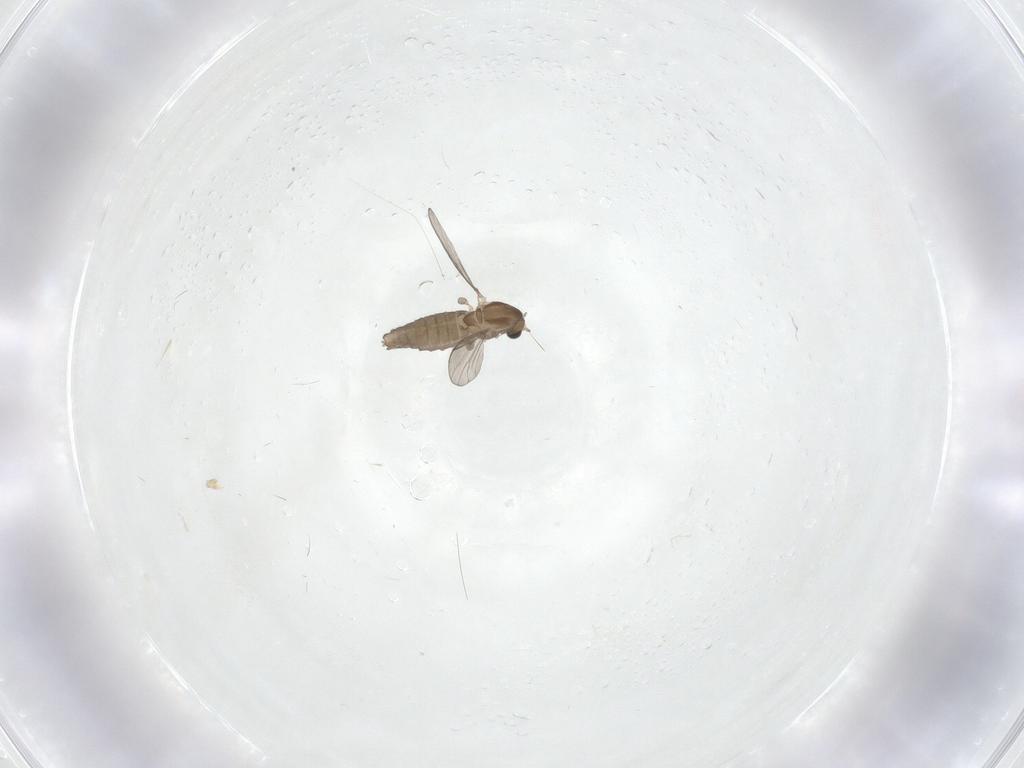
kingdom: Animalia
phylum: Arthropoda
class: Insecta
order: Diptera
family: Chironomidae
